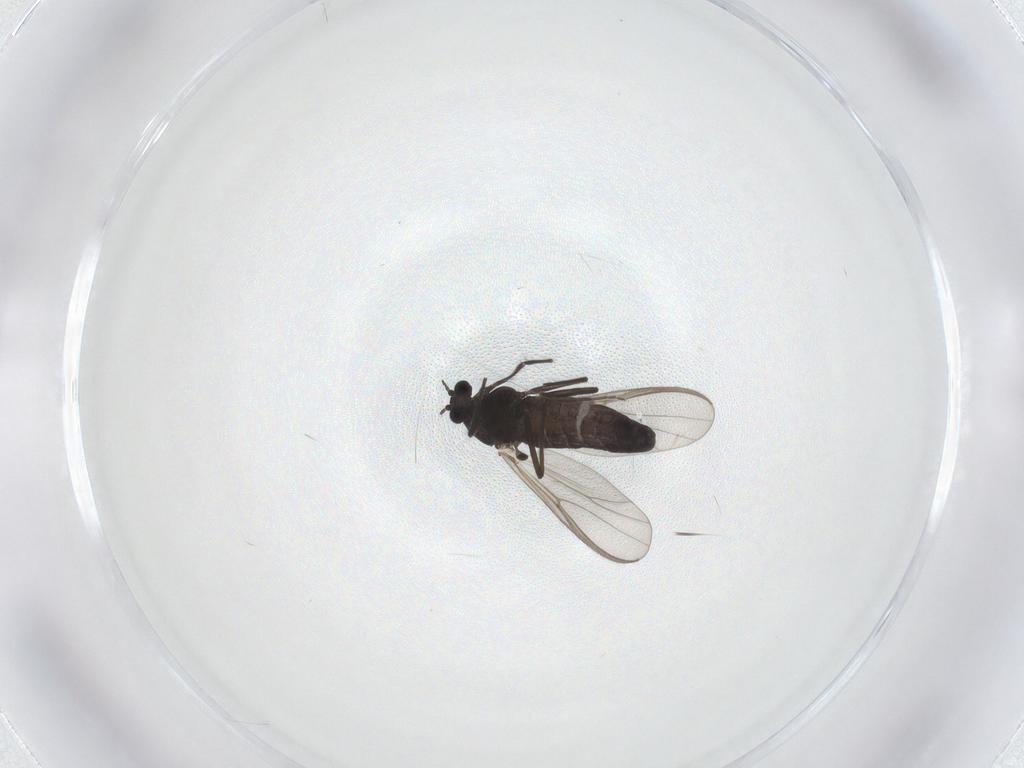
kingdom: Animalia
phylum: Arthropoda
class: Insecta
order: Diptera
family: Chironomidae
